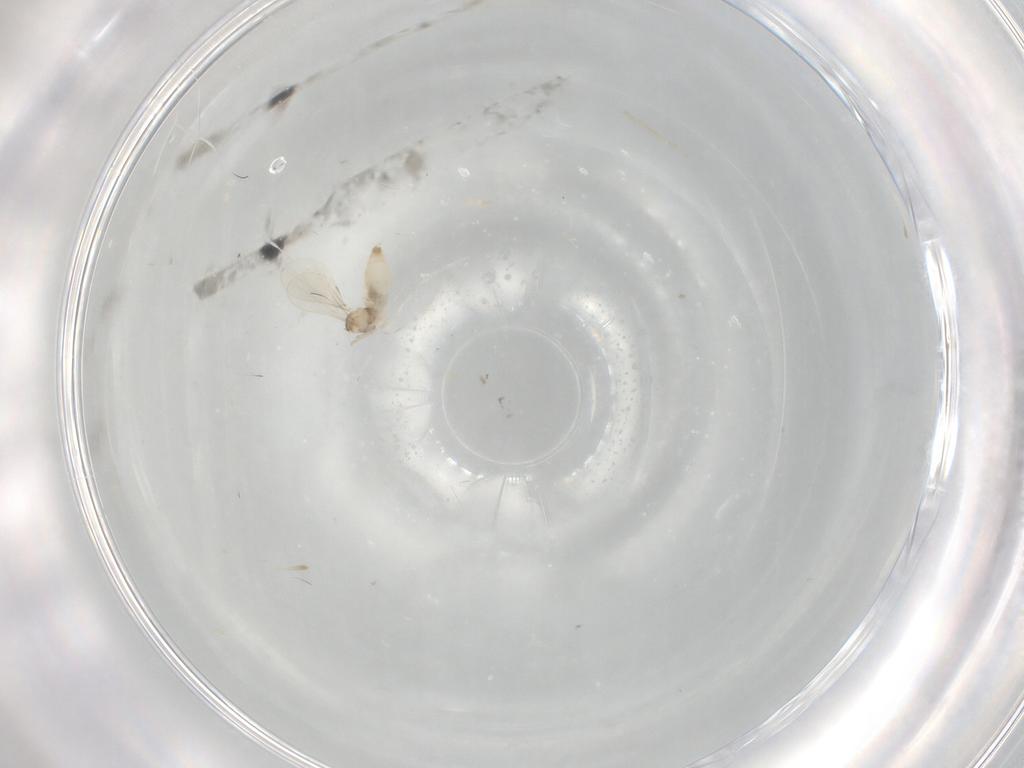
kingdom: Animalia
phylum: Arthropoda
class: Insecta
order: Diptera
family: Cecidomyiidae
